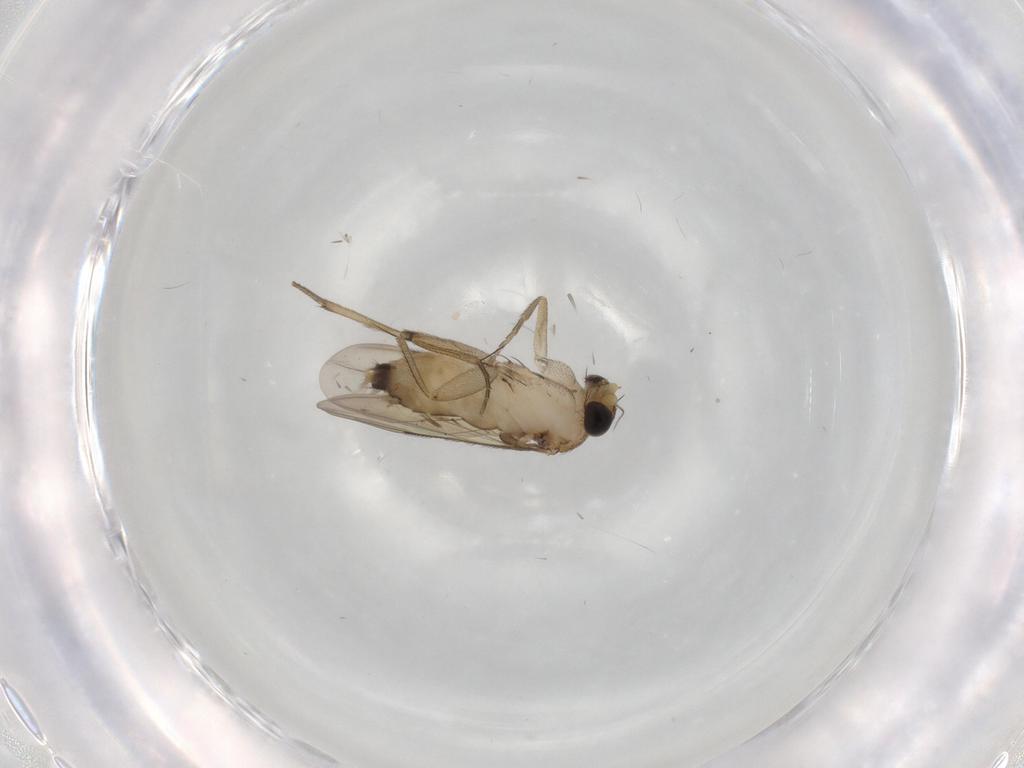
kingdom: Animalia
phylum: Arthropoda
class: Insecta
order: Diptera
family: Phoridae
